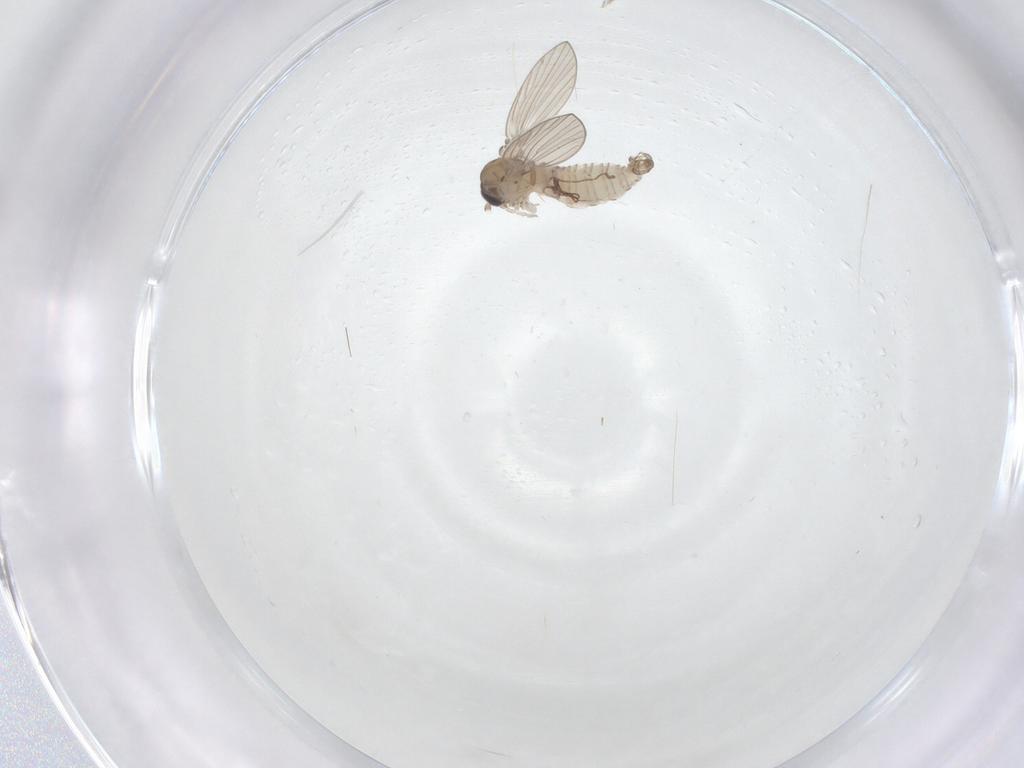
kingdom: Animalia
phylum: Arthropoda
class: Insecta
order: Diptera
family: Psychodidae
